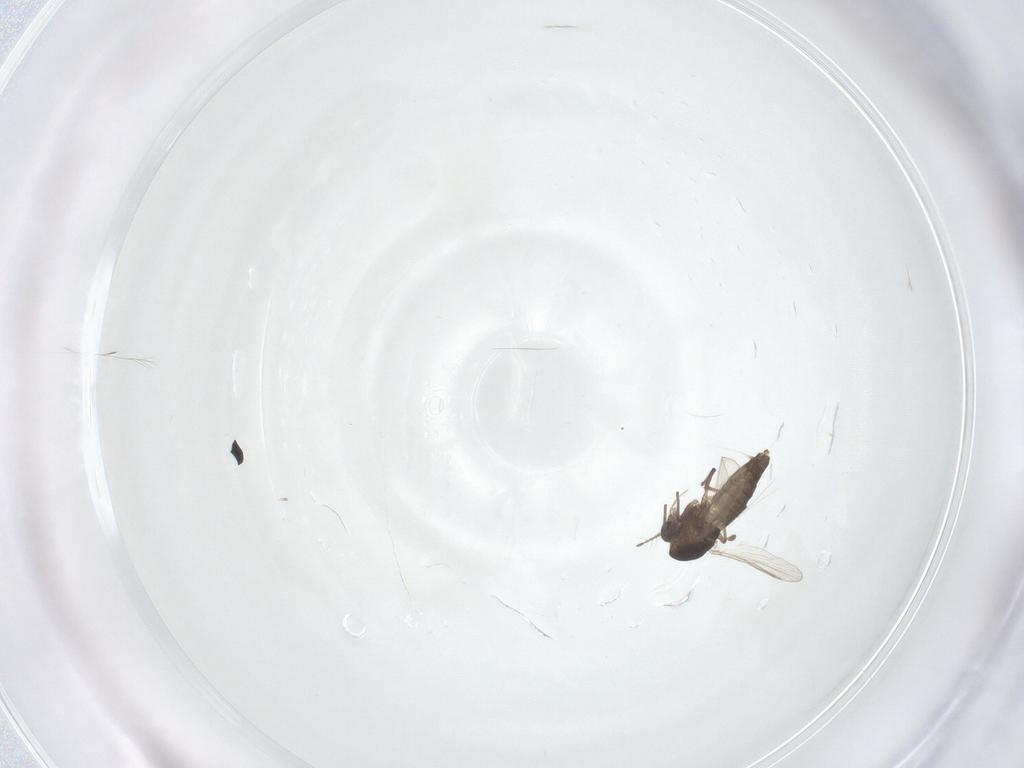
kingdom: Animalia
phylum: Arthropoda
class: Insecta
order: Diptera
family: Chironomidae
